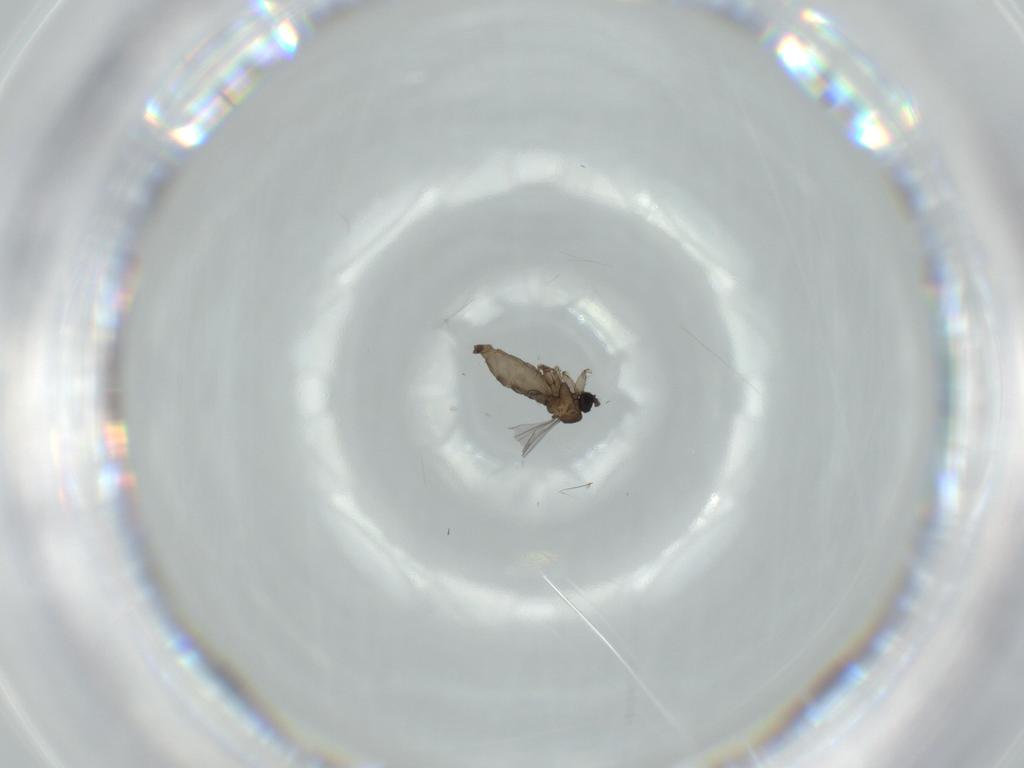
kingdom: Animalia
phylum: Arthropoda
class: Insecta
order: Diptera
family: Sciaridae
